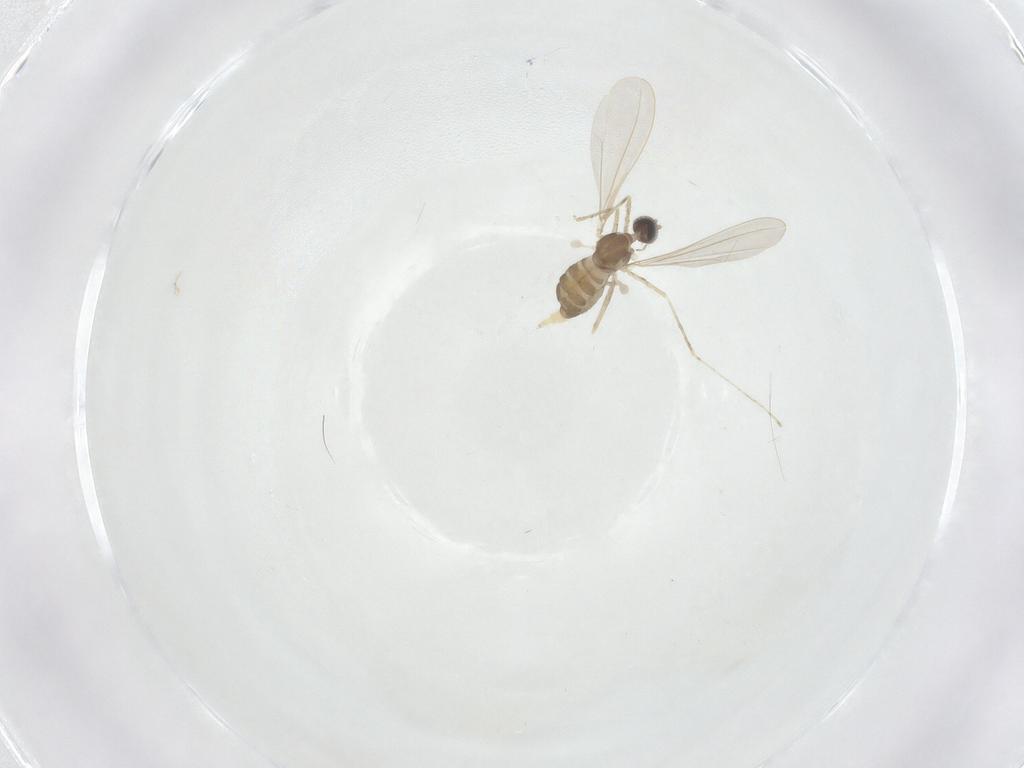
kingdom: Animalia
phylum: Arthropoda
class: Insecta
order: Diptera
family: Cecidomyiidae
